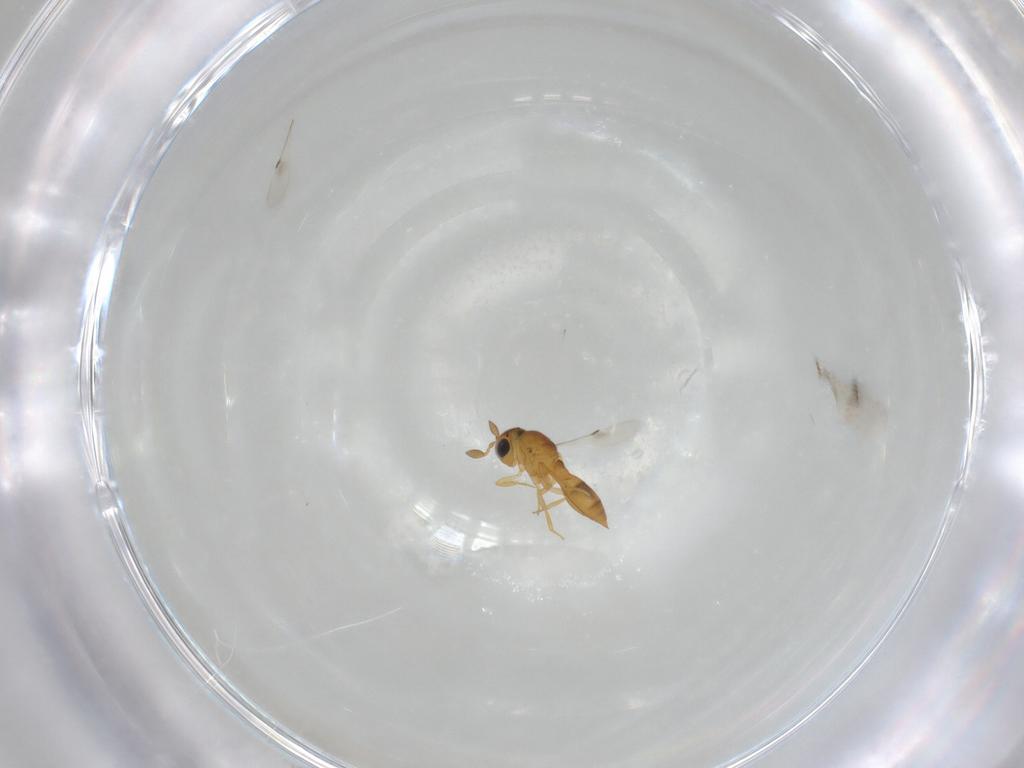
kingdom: Animalia
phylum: Arthropoda
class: Insecta
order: Hymenoptera
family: Scelionidae
